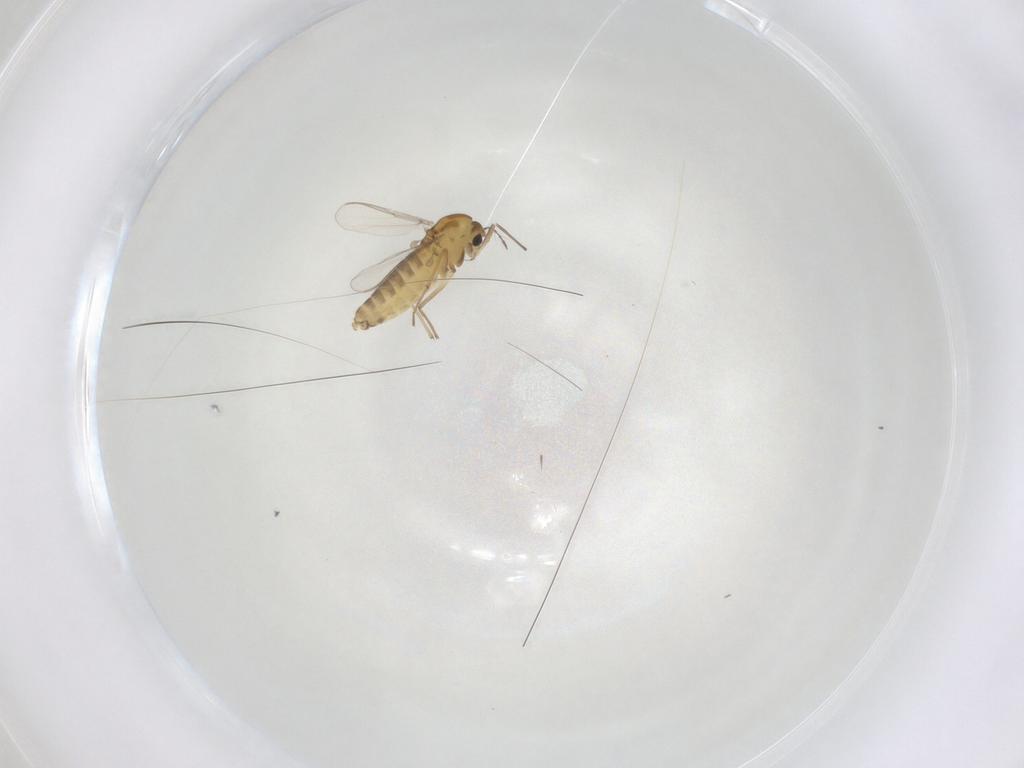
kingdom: Animalia
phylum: Arthropoda
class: Insecta
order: Diptera
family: Chironomidae
